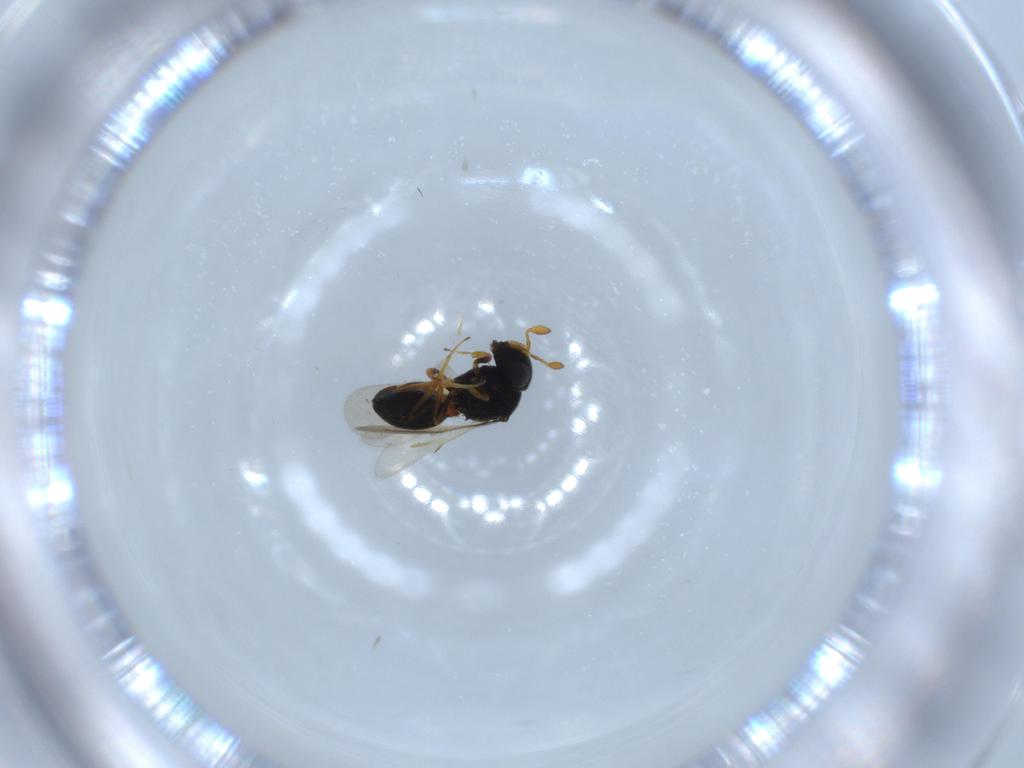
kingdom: Animalia
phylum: Arthropoda
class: Insecta
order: Hymenoptera
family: Scelionidae
